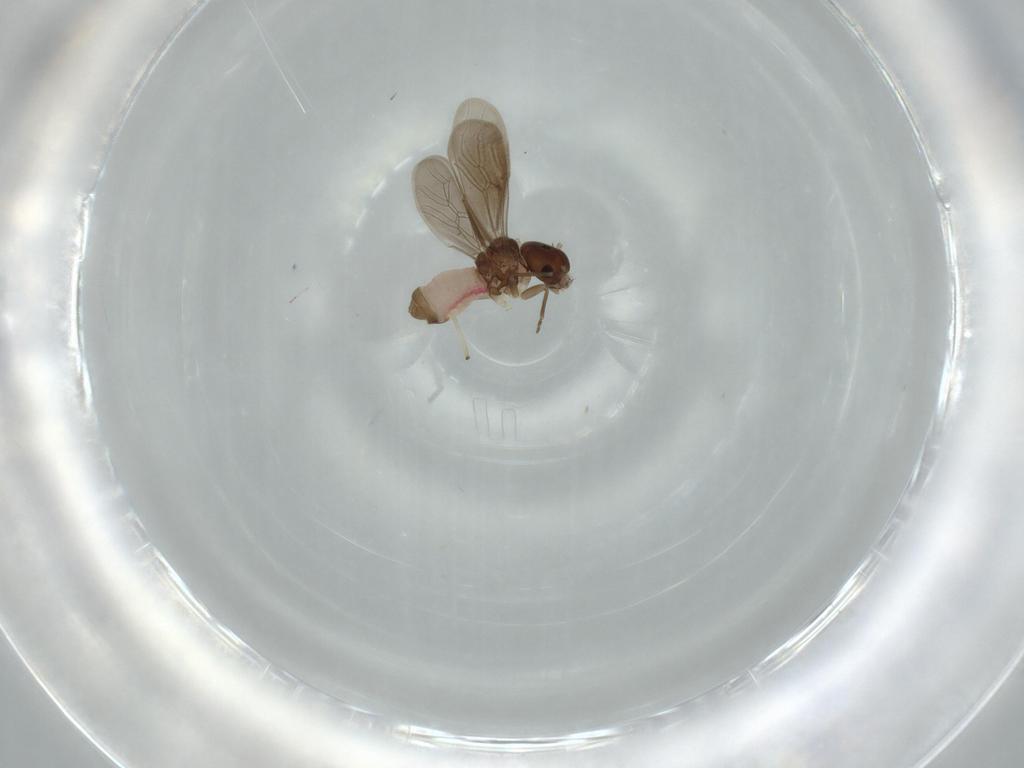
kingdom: Animalia
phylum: Arthropoda
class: Insecta
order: Psocodea
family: Asiopsocidae
